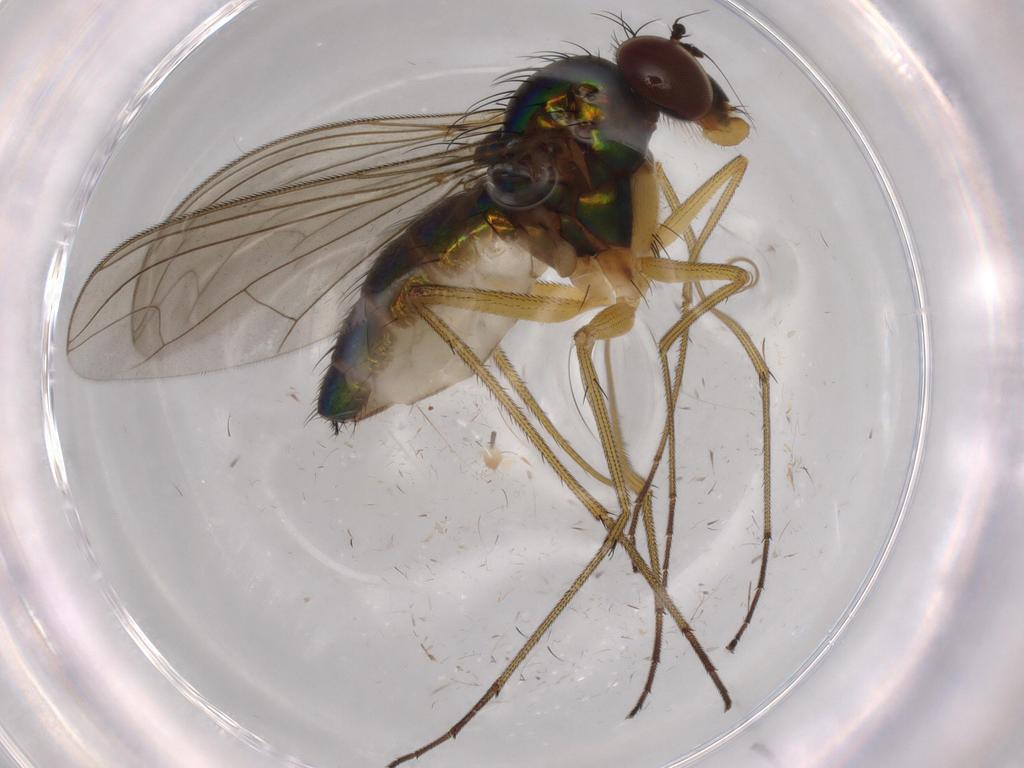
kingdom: Animalia
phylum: Arthropoda
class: Insecta
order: Diptera
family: Dolichopodidae
